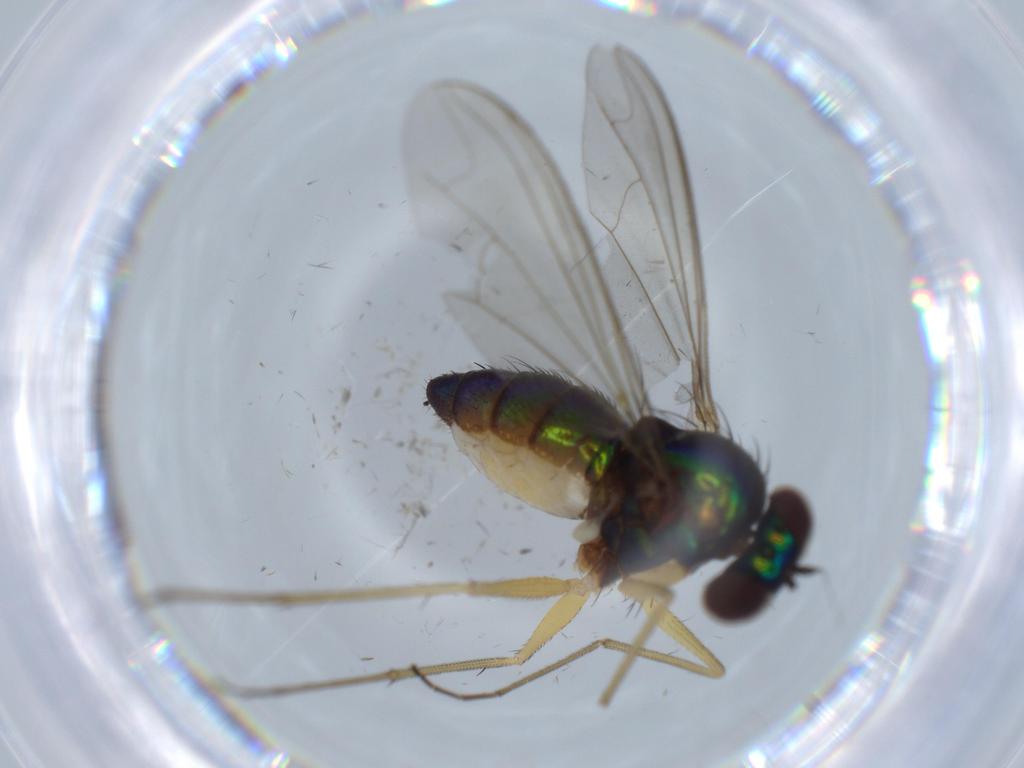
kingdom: Animalia
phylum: Arthropoda
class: Insecta
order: Diptera
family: Dolichopodidae
